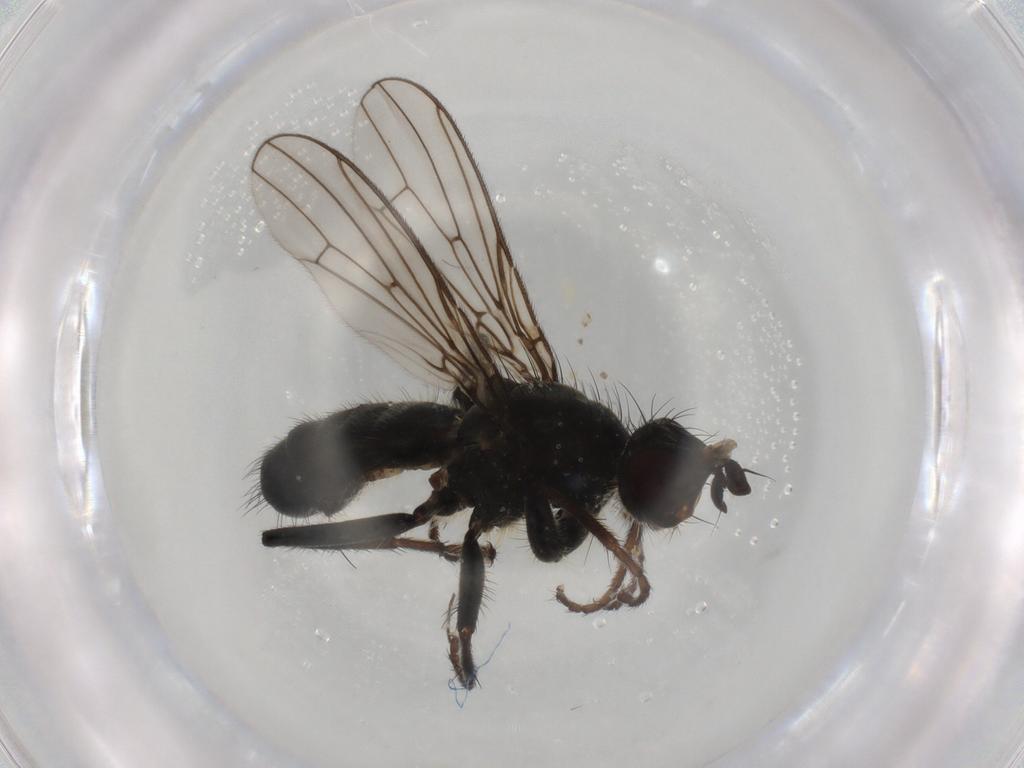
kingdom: Animalia
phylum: Arthropoda
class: Insecta
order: Diptera
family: Scathophagidae
